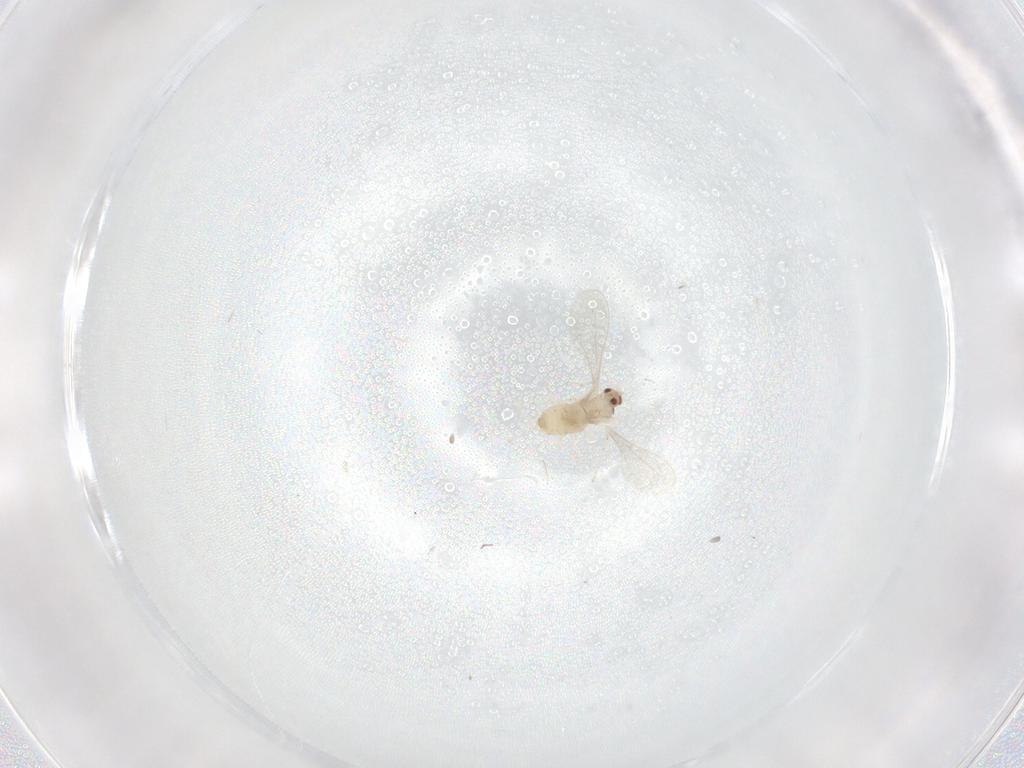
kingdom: Animalia
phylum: Arthropoda
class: Insecta
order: Diptera
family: Cecidomyiidae
